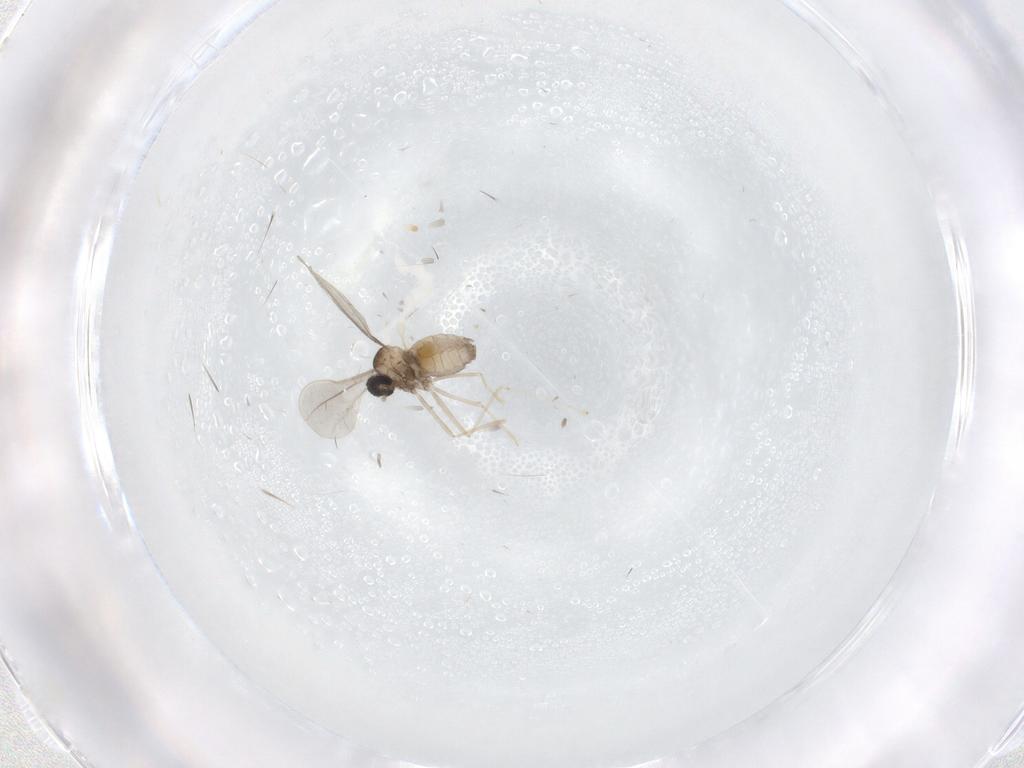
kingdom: Animalia
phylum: Arthropoda
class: Insecta
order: Diptera
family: Cecidomyiidae
